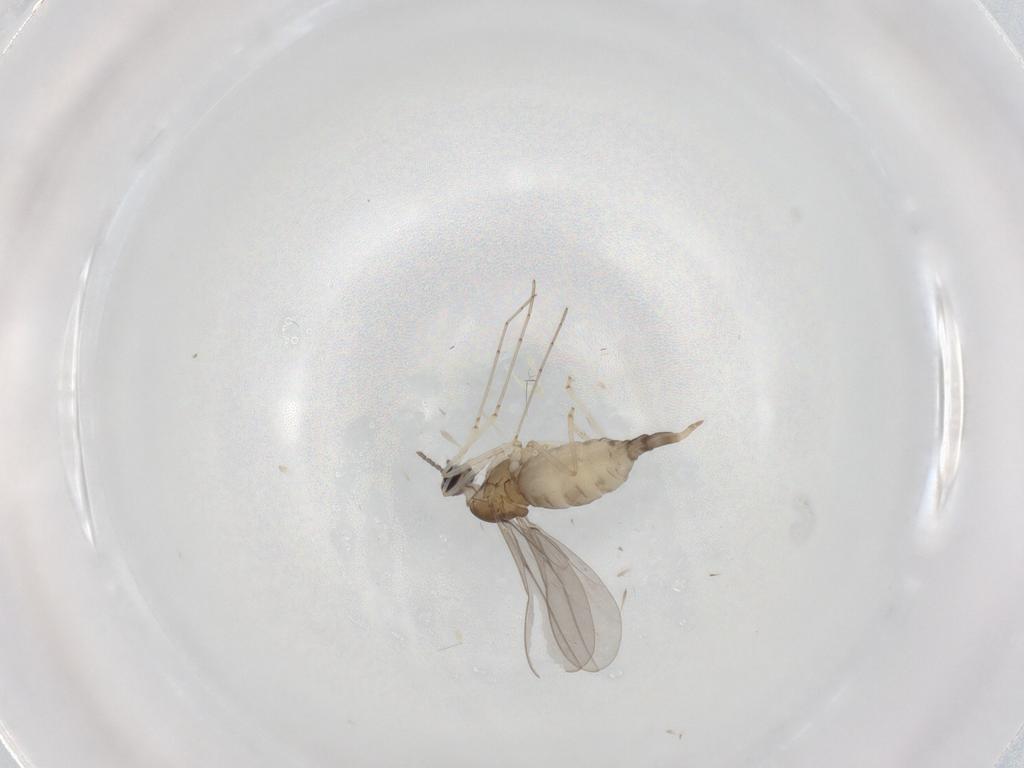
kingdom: Animalia
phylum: Arthropoda
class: Insecta
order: Diptera
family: Cecidomyiidae
